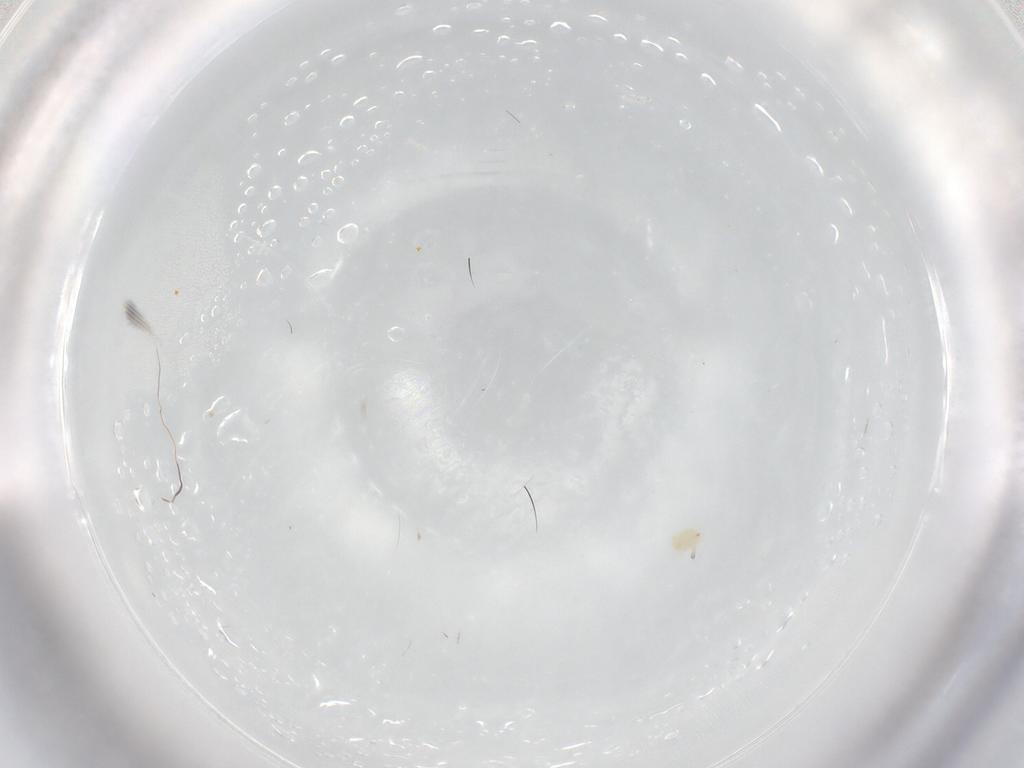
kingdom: Animalia
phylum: Arthropoda
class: Arachnida
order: Trombidiformes
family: Tetranychidae
